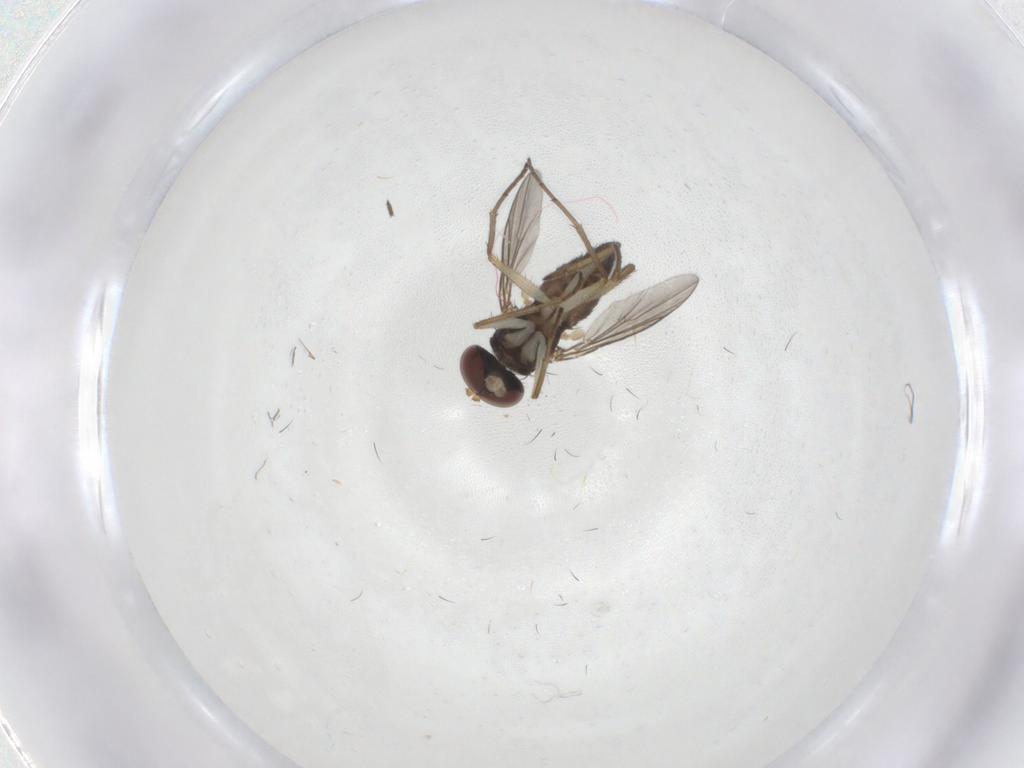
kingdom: Animalia
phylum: Arthropoda
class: Insecta
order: Diptera
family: Dolichopodidae
